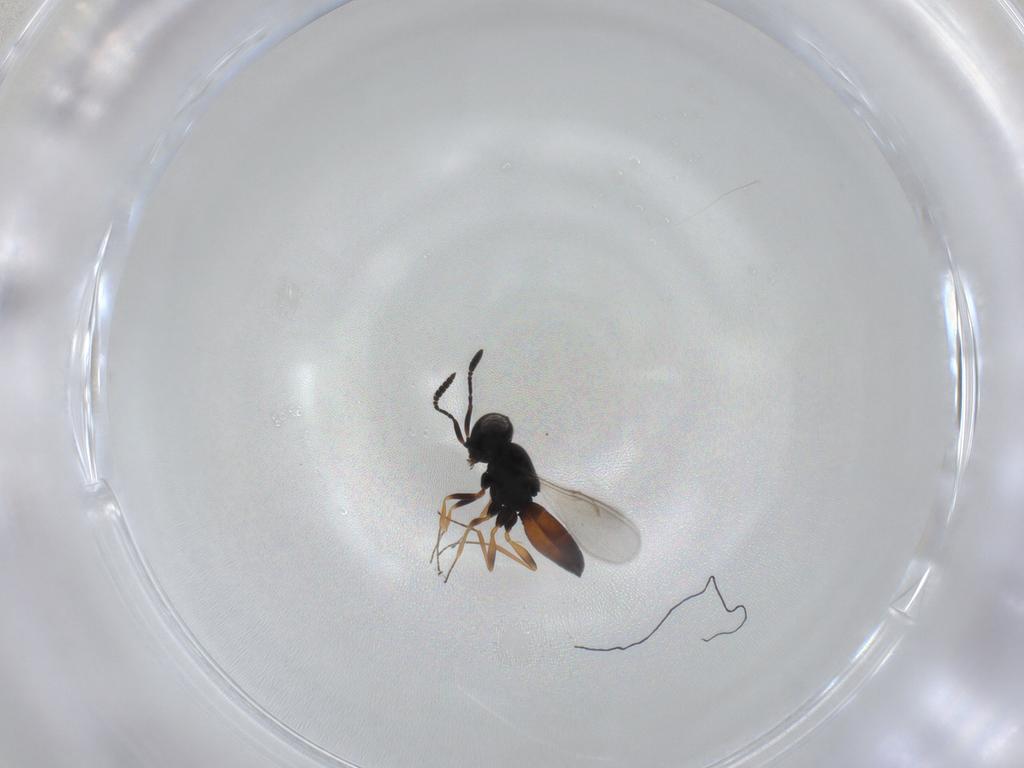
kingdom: Animalia
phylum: Arthropoda
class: Insecta
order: Hymenoptera
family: Scelionidae
